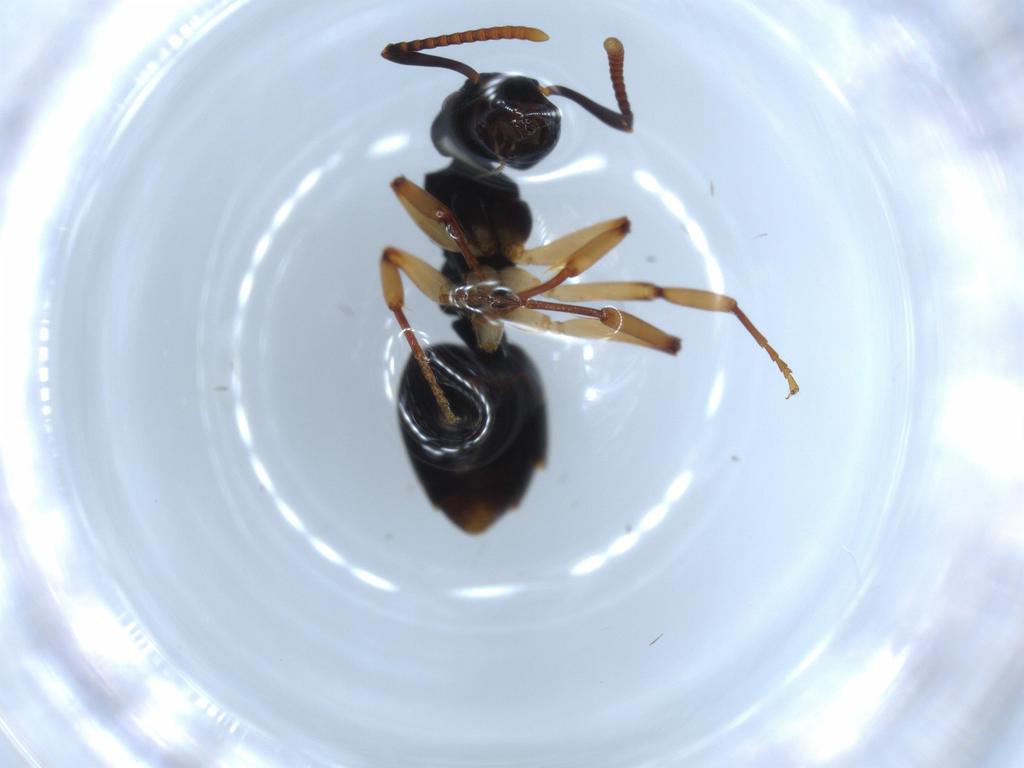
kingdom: Animalia
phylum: Arthropoda
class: Insecta
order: Hymenoptera
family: Formicidae
